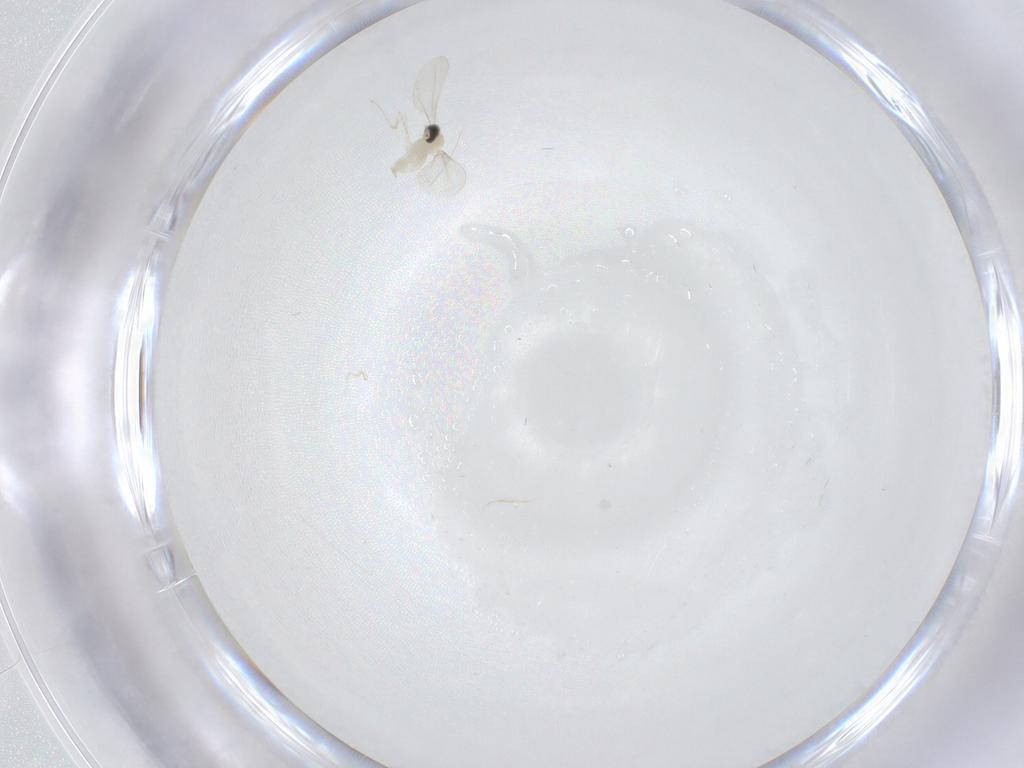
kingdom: Animalia
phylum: Arthropoda
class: Insecta
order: Diptera
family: Cecidomyiidae
